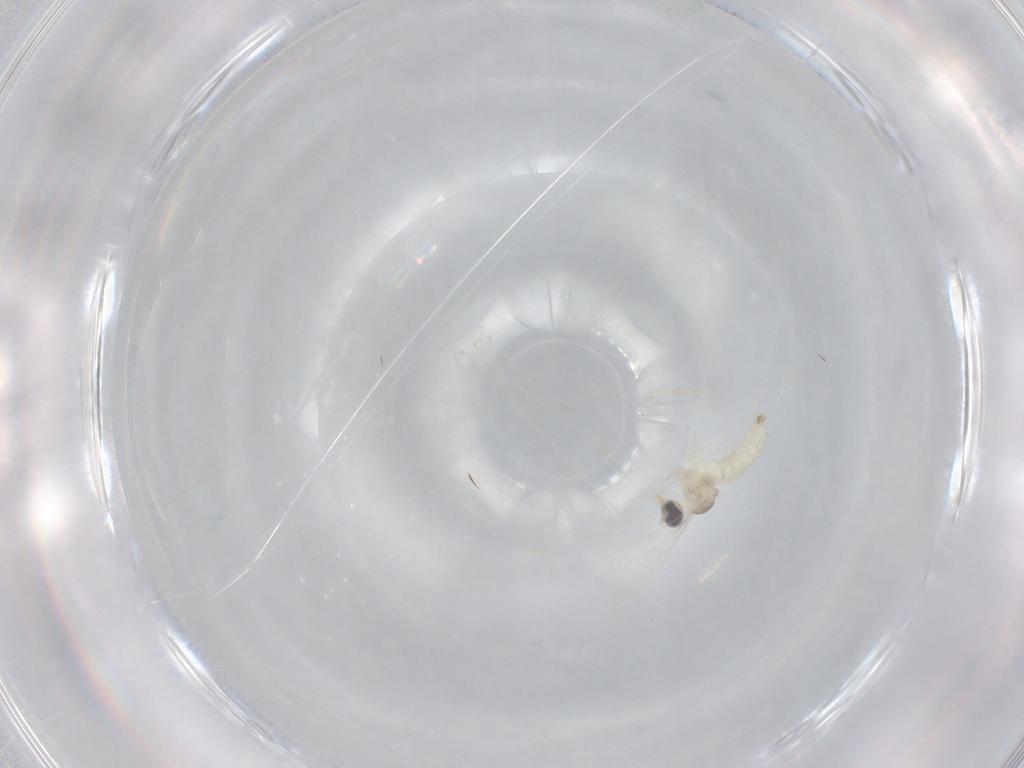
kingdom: Animalia
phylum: Arthropoda
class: Insecta
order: Diptera
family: Cecidomyiidae
